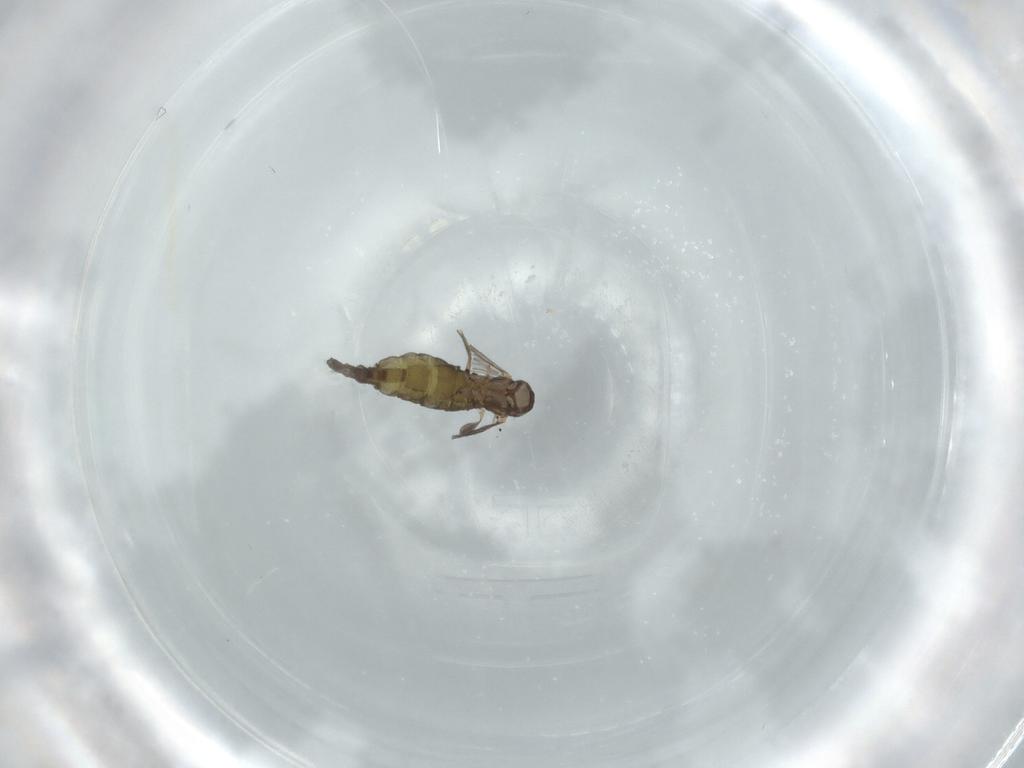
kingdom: Animalia
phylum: Arthropoda
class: Insecta
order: Diptera
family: Sciaridae
